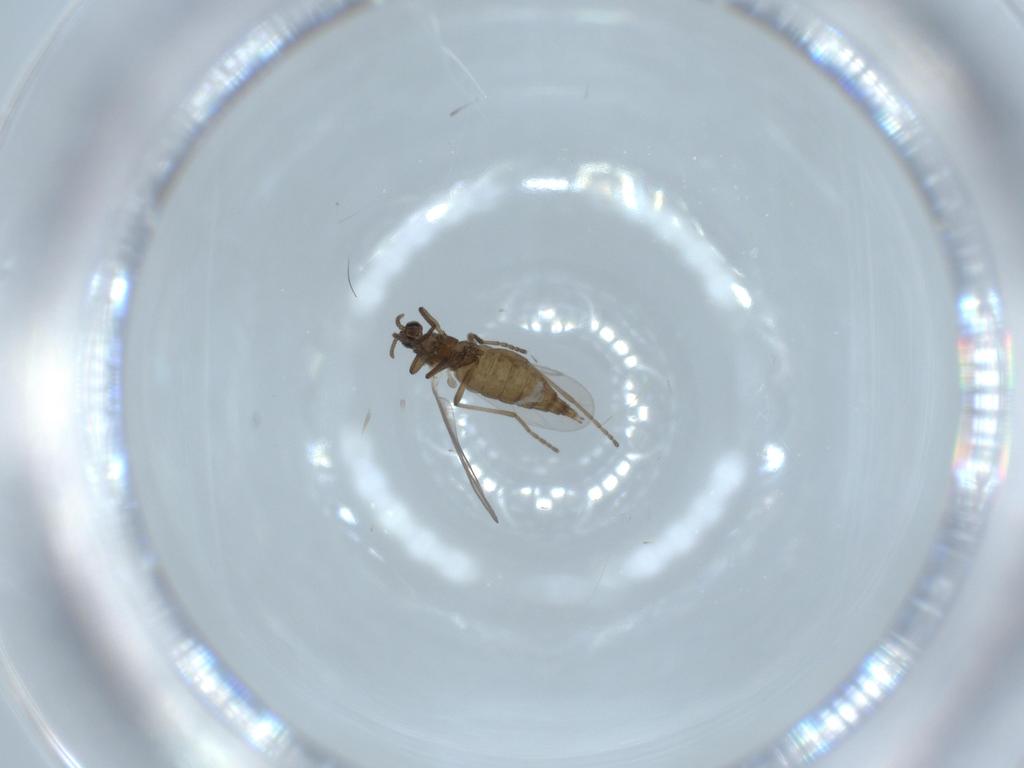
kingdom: Animalia
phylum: Arthropoda
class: Insecta
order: Diptera
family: Cecidomyiidae
